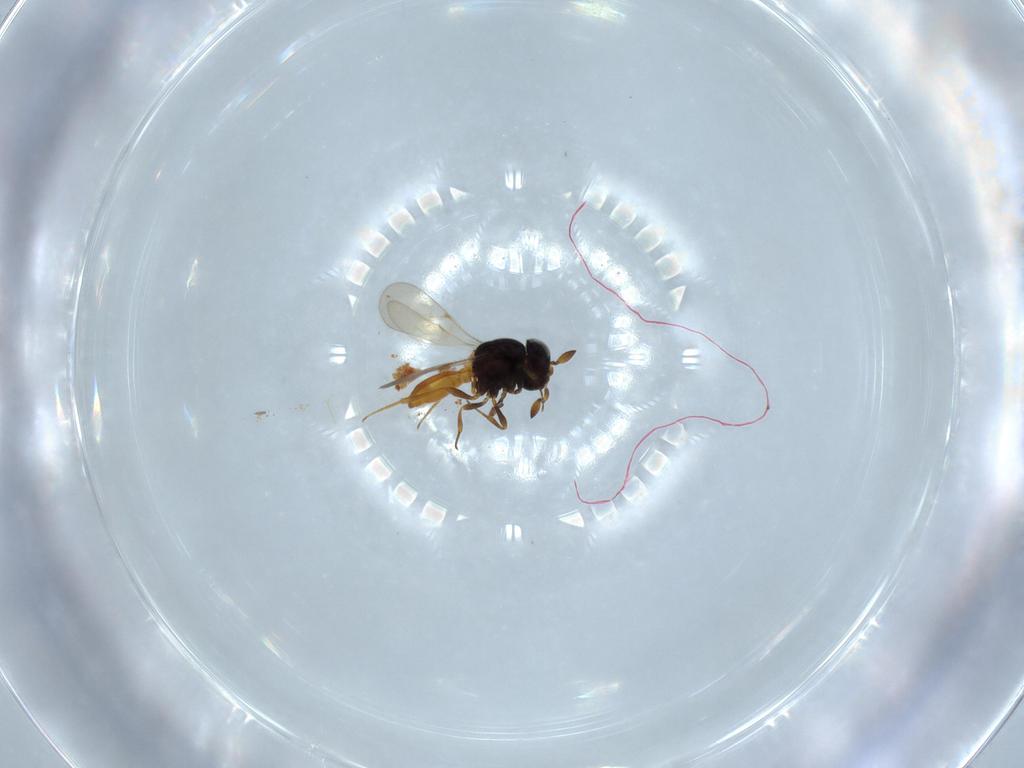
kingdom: Animalia
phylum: Arthropoda
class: Insecta
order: Hymenoptera
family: Scelionidae
